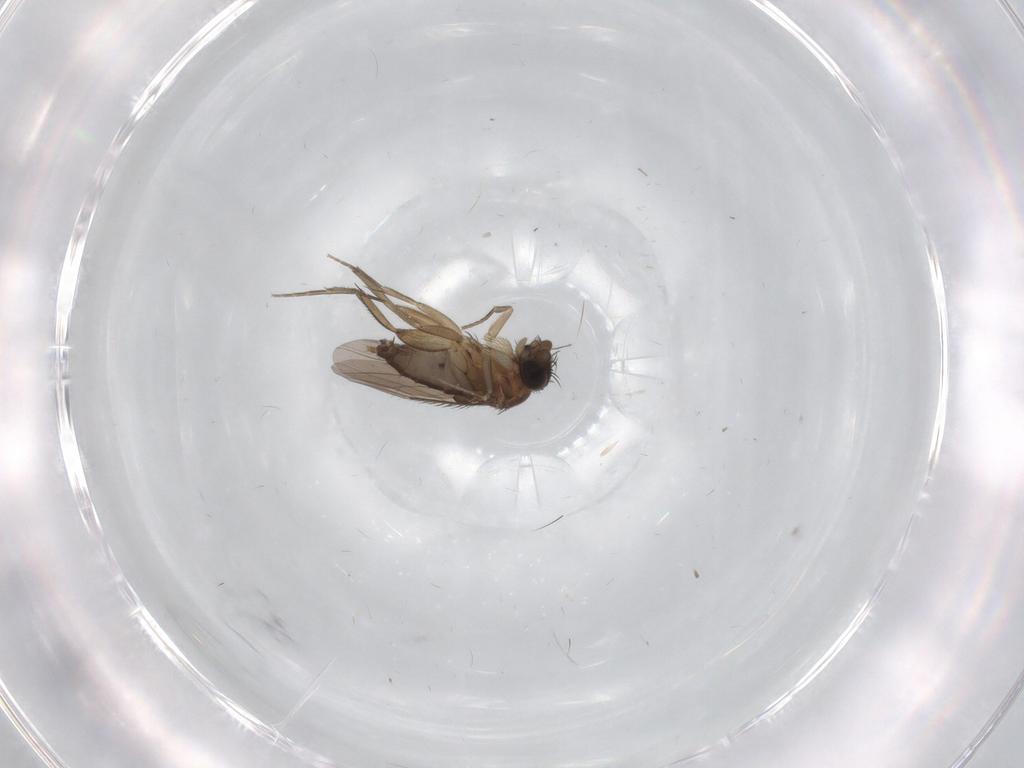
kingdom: Animalia
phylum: Arthropoda
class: Insecta
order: Diptera
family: Phoridae
